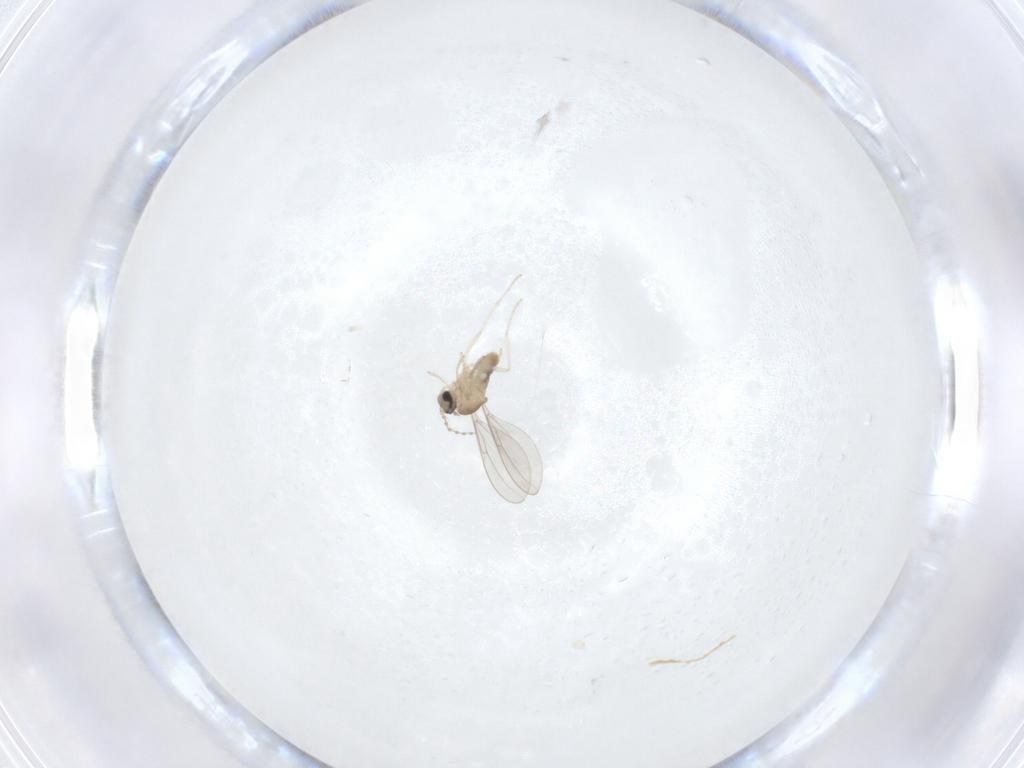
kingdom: Animalia
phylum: Arthropoda
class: Insecta
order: Diptera
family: Cecidomyiidae
